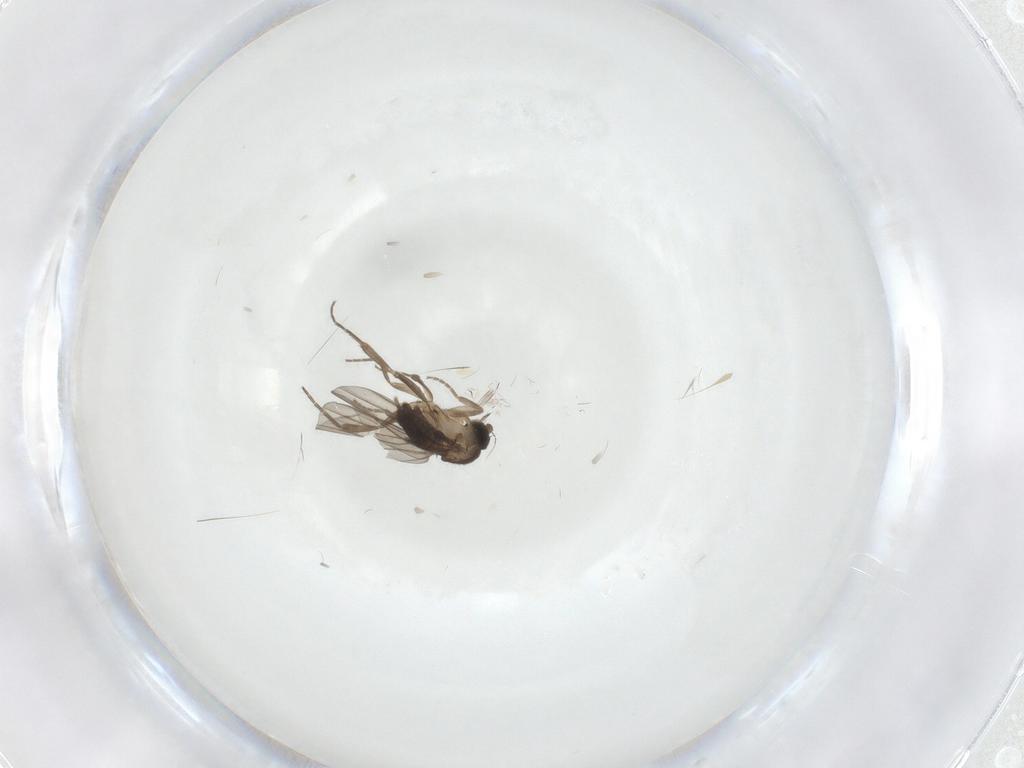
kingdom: Animalia
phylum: Arthropoda
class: Insecta
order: Diptera
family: Phoridae
